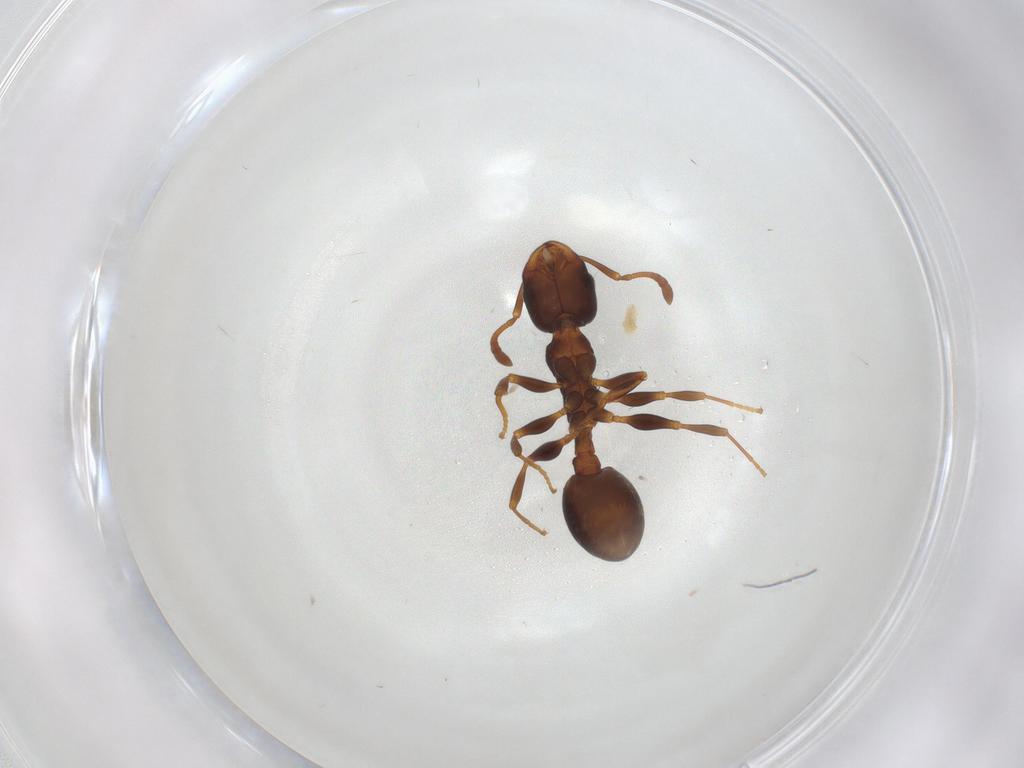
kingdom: Animalia
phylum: Arthropoda
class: Insecta
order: Hymenoptera
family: Formicidae
